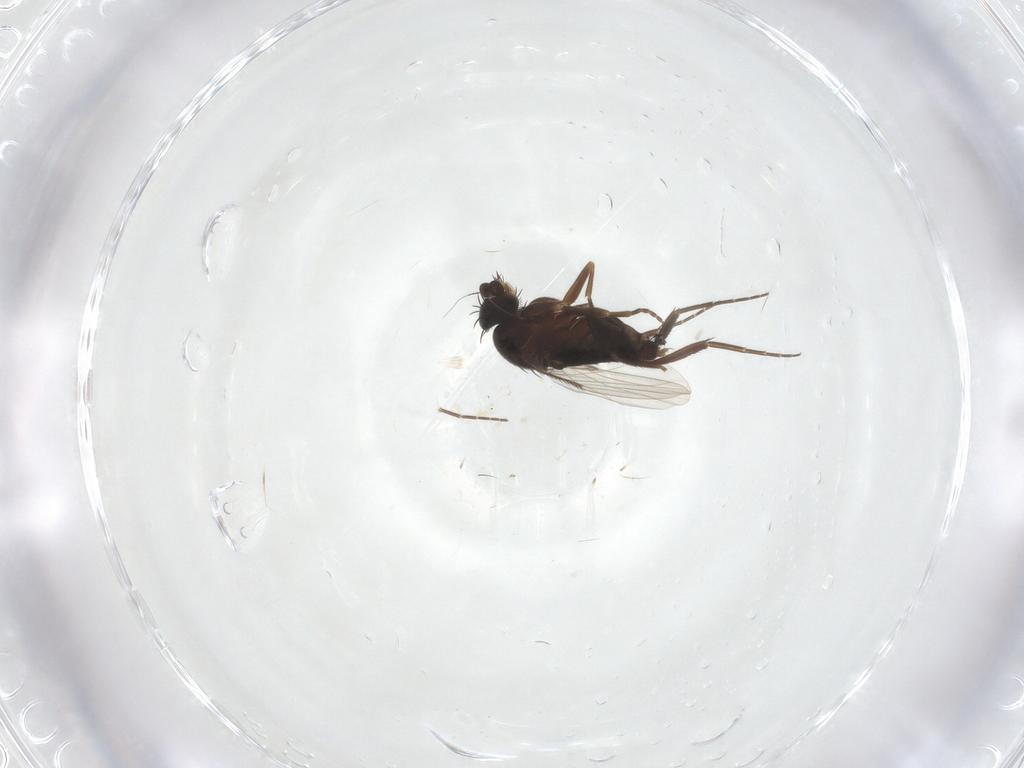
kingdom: Animalia
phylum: Arthropoda
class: Insecta
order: Diptera
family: Phoridae
